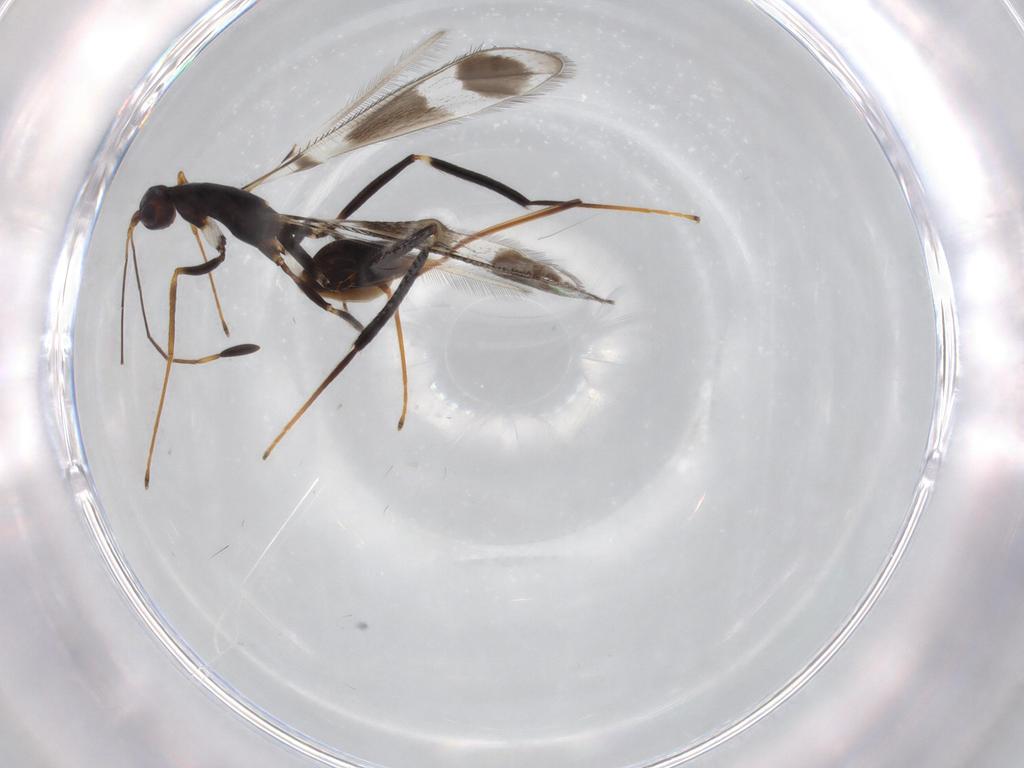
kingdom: Animalia
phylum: Arthropoda
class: Insecta
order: Hymenoptera
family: Mymaridae
